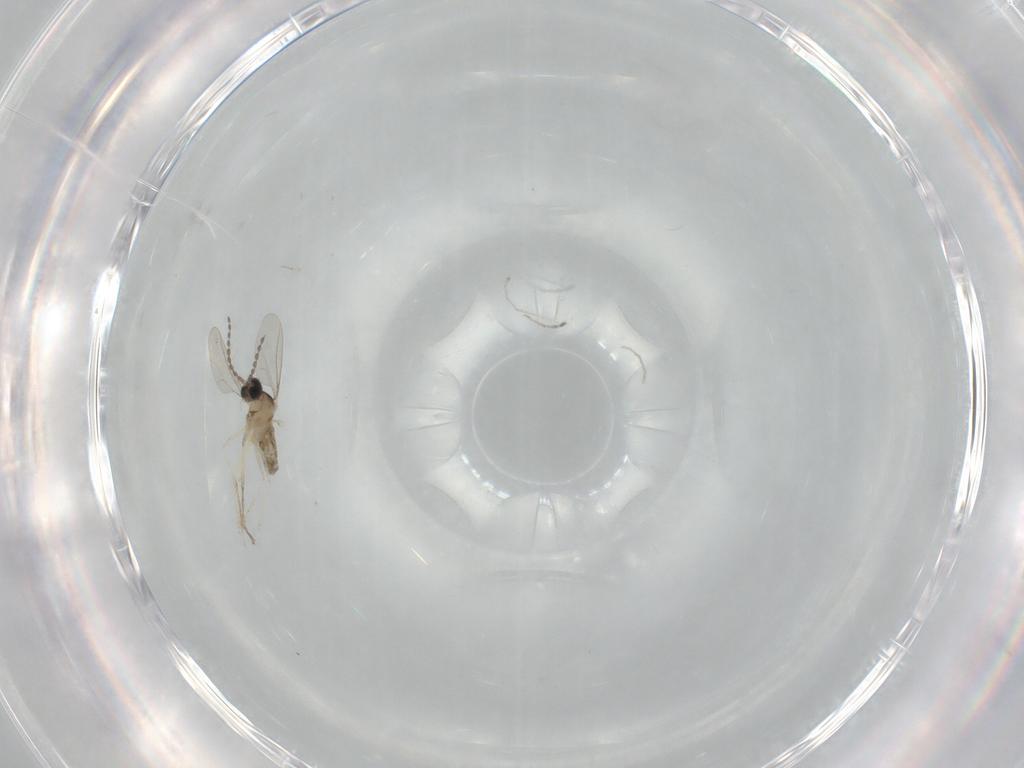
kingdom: Animalia
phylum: Arthropoda
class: Insecta
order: Diptera
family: Cecidomyiidae
